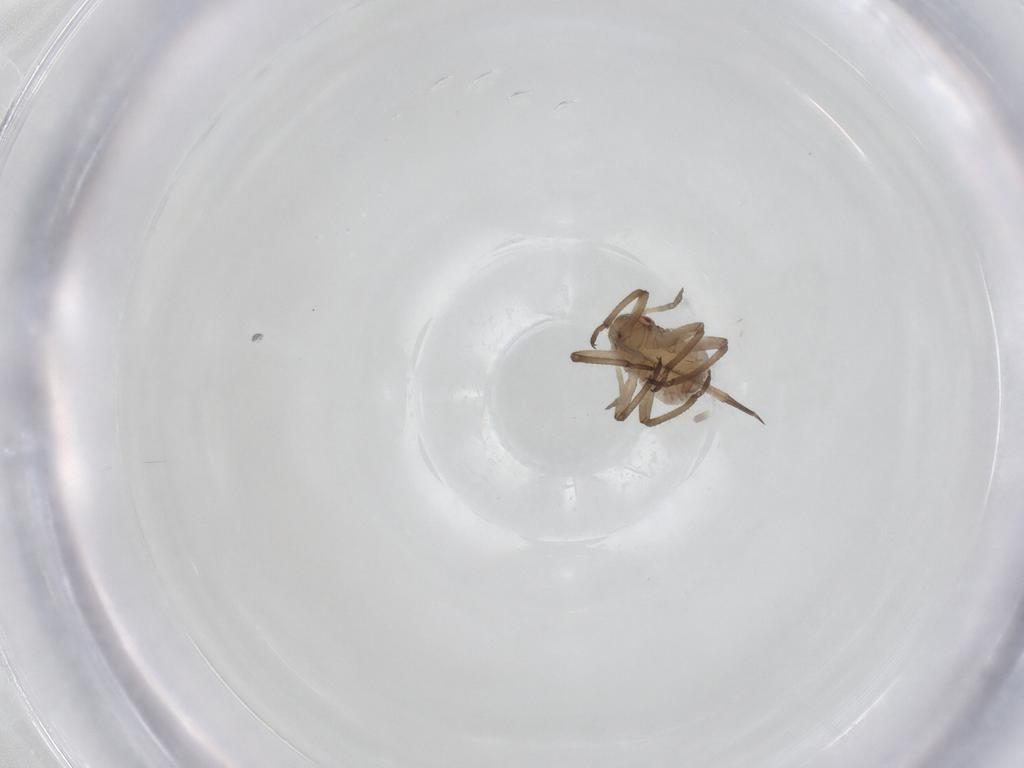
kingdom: Animalia
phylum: Arthropoda
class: Insecta
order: Hemiptera
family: Aphididae
